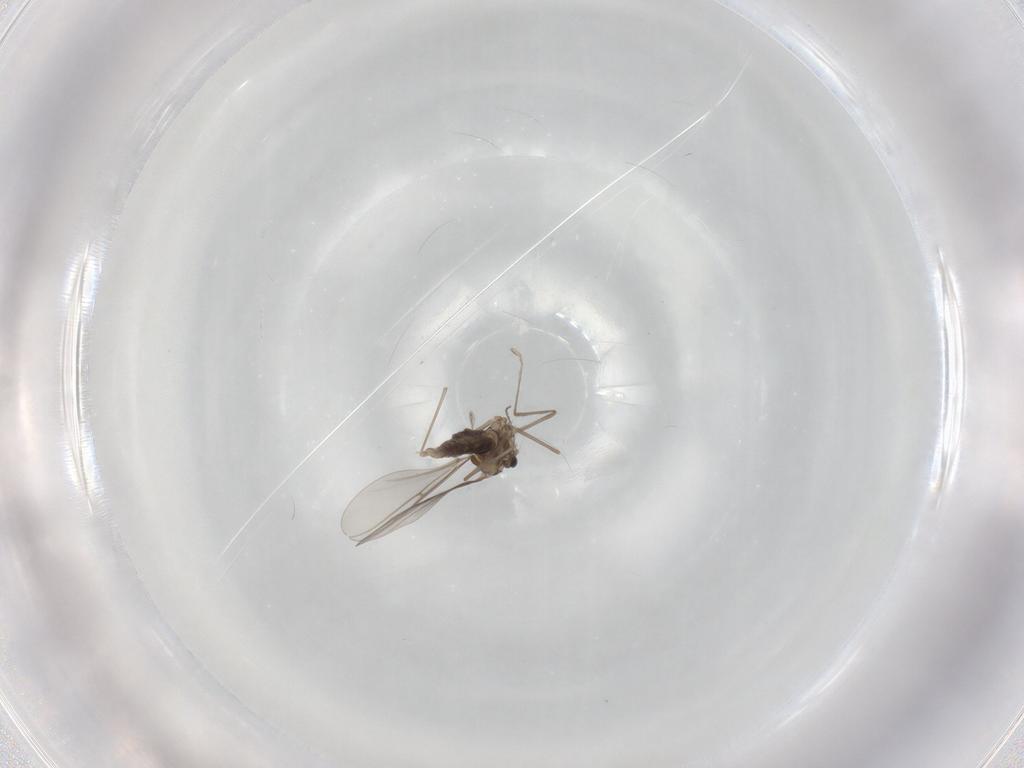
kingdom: Animalia
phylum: Arthropoda
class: Insecta
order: Diptera
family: Cecidomyiidae
